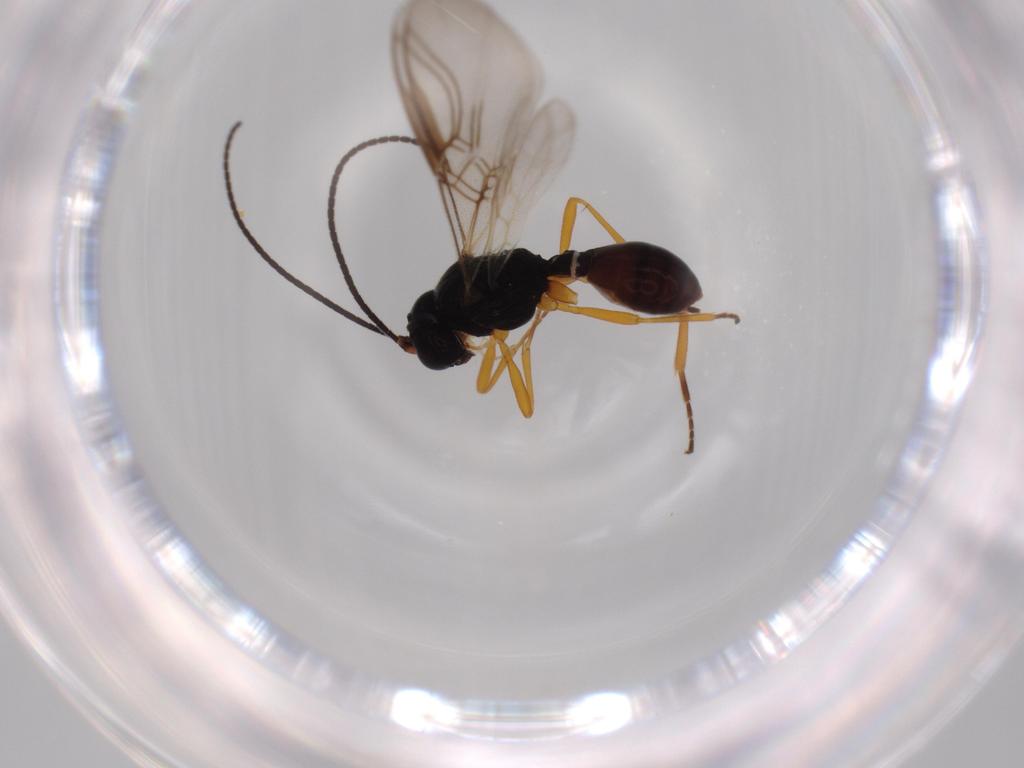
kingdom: Animalia
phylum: Arthropoda
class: Insecta
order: Hymenoptera
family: Braconidae
